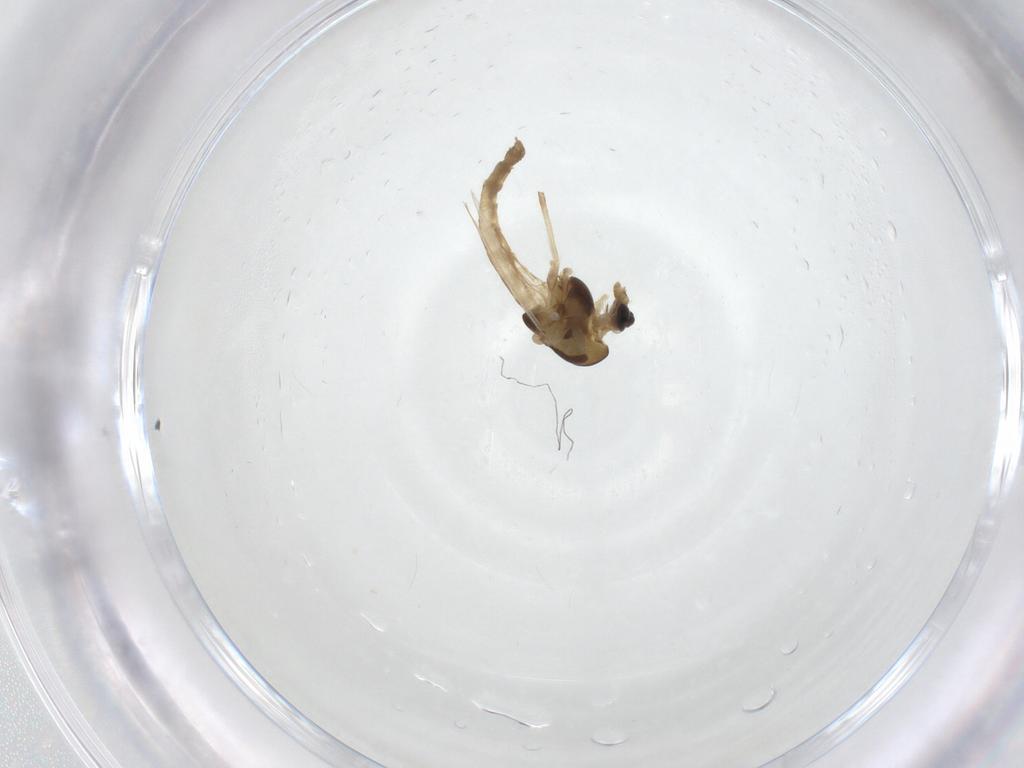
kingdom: Animalia
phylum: Arthropoda
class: Insecta
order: Diptera
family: Chironomidae
